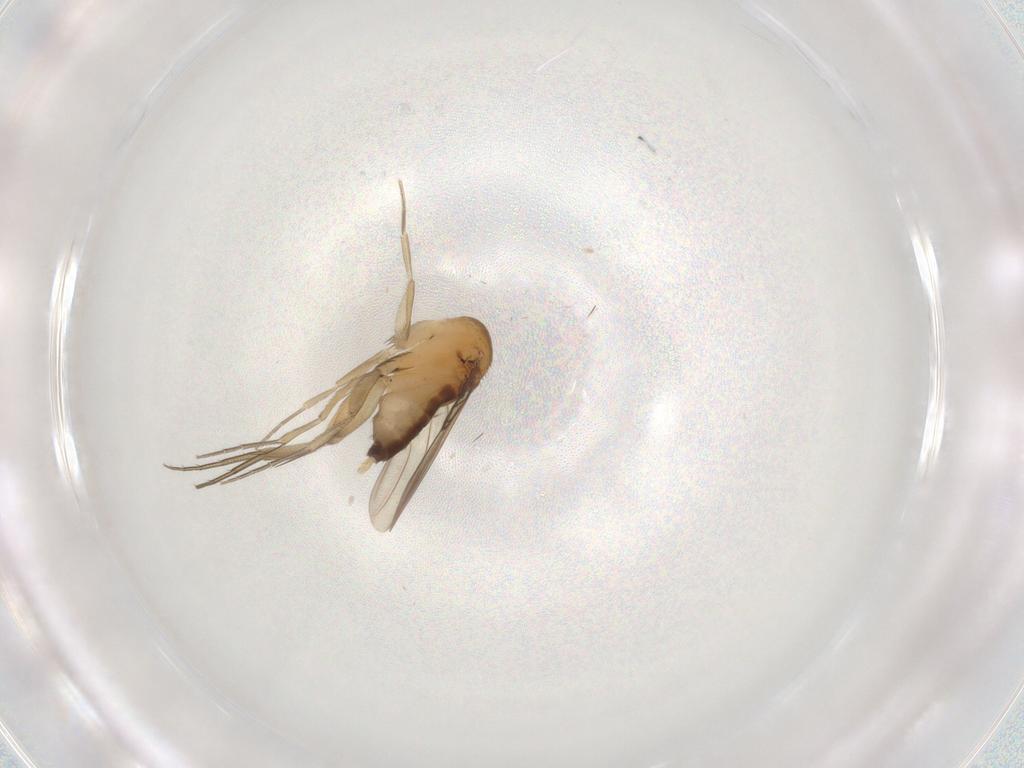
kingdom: Animalia
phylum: Arthropoda
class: Insecta
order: Diptera
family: Phoridae
